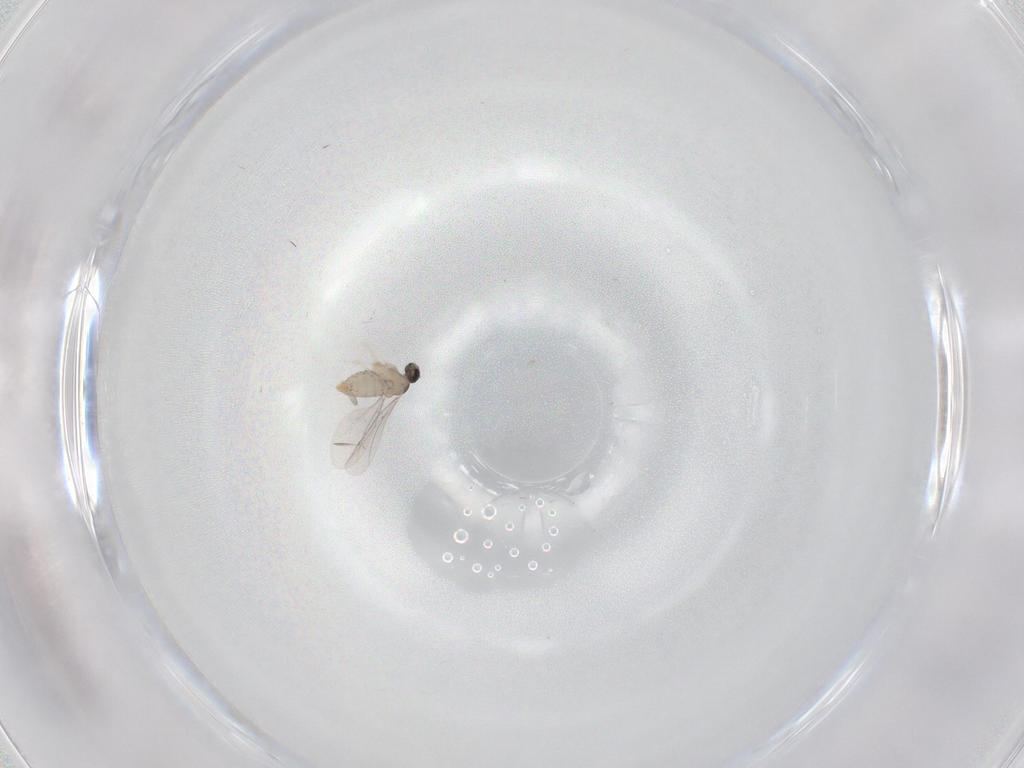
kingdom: Animalia
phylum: Arthropoda
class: Insecta
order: Diptera
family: Cecidomyiidae
